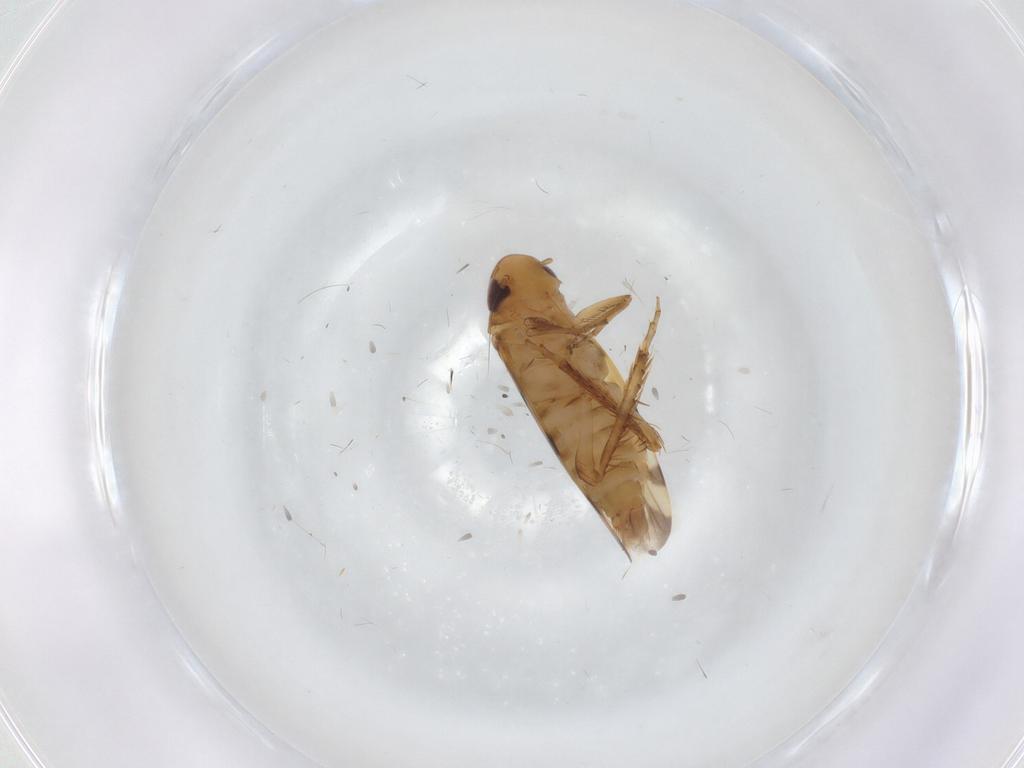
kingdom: Animalia
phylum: Arthropoda
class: Insecta
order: Hemiptera
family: Cicadellidae
